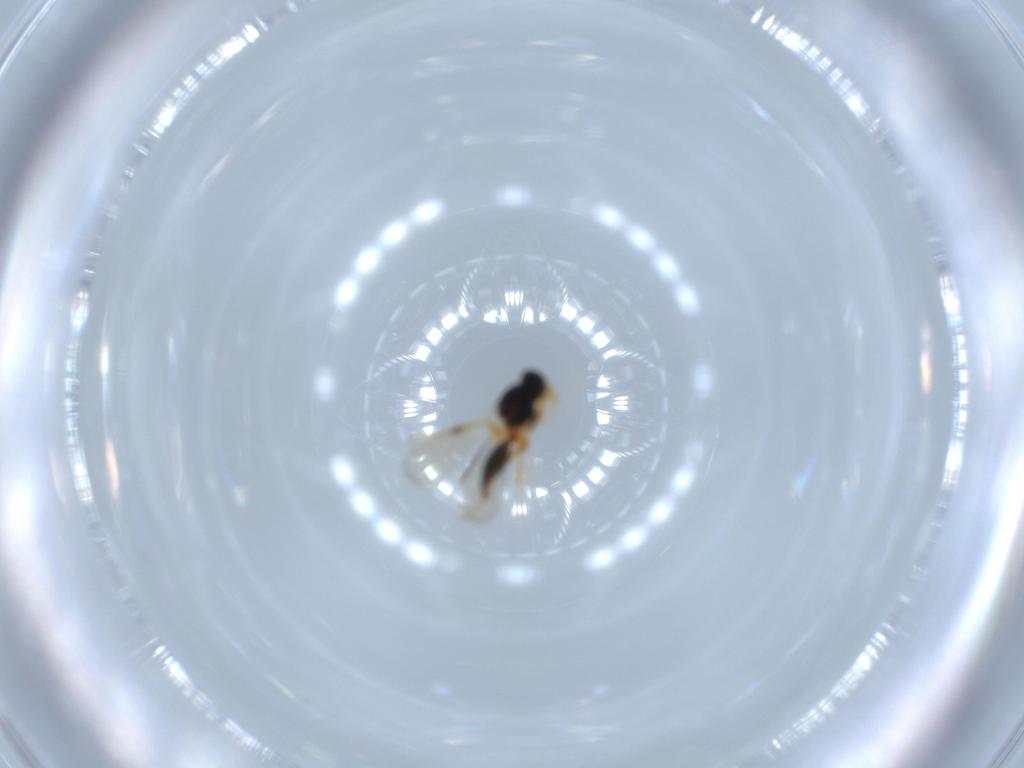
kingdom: Animalia
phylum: Arthropoda
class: Insecta
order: Hymenoptera
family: Platygastridae
